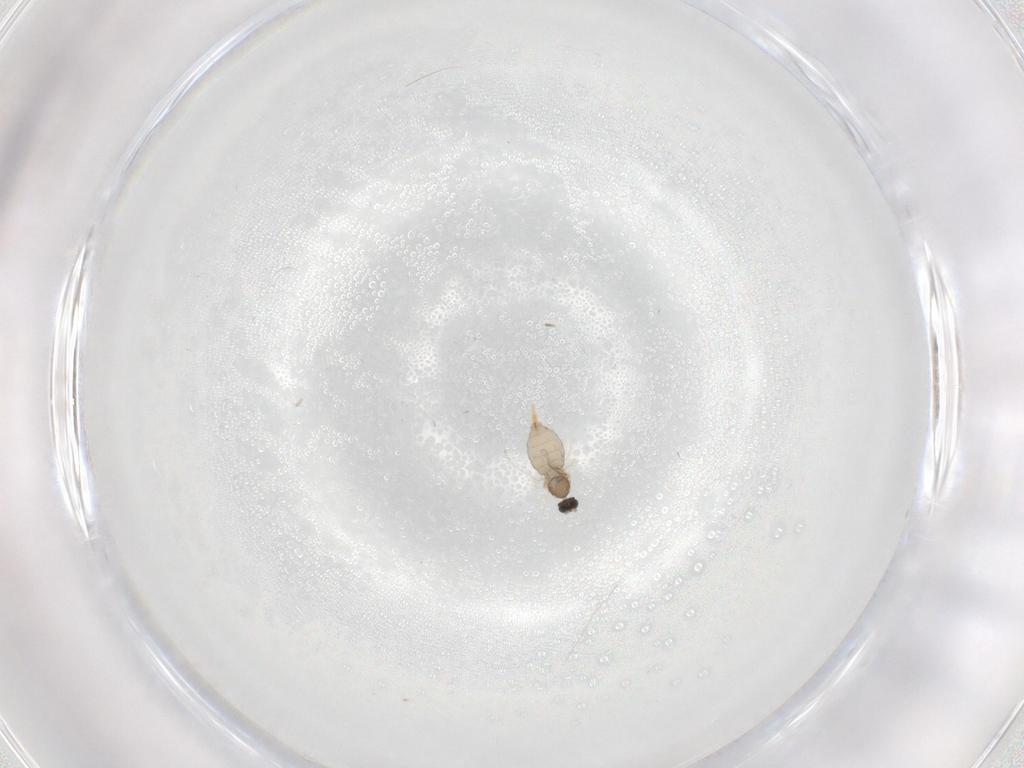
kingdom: Animalia
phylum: Arthropoda
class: Insecta
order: Diptera
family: Cecidomyiidae
